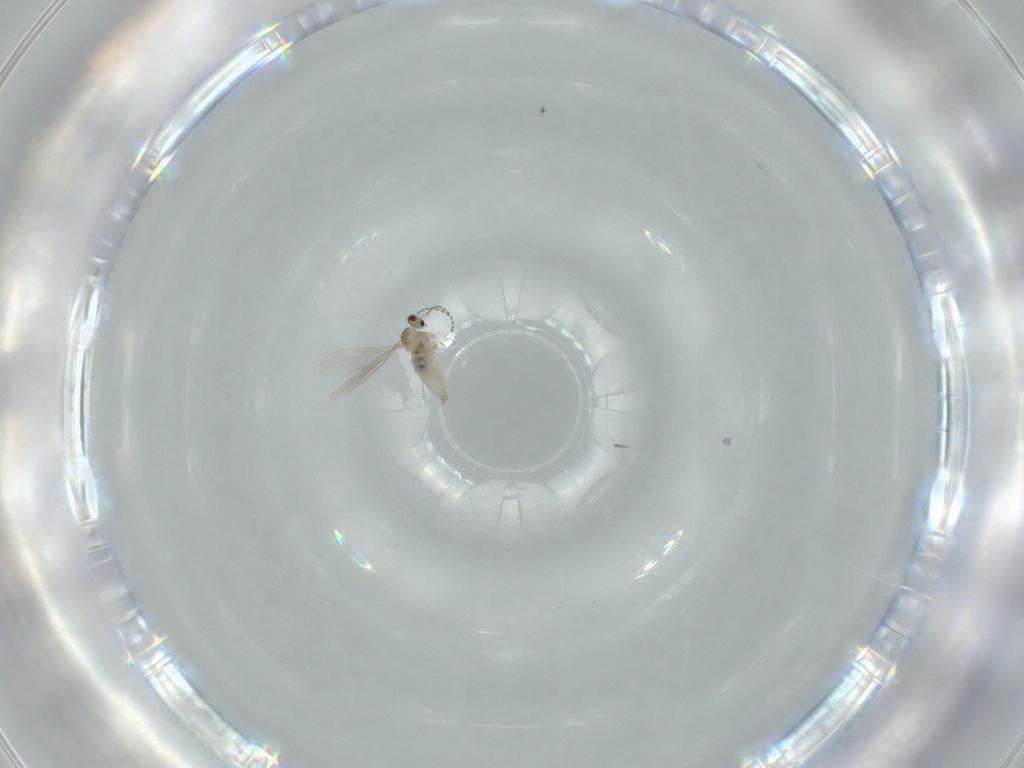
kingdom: Animalia
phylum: Arthropoda
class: Insecta
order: Diptera
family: Cecidomyiidae
